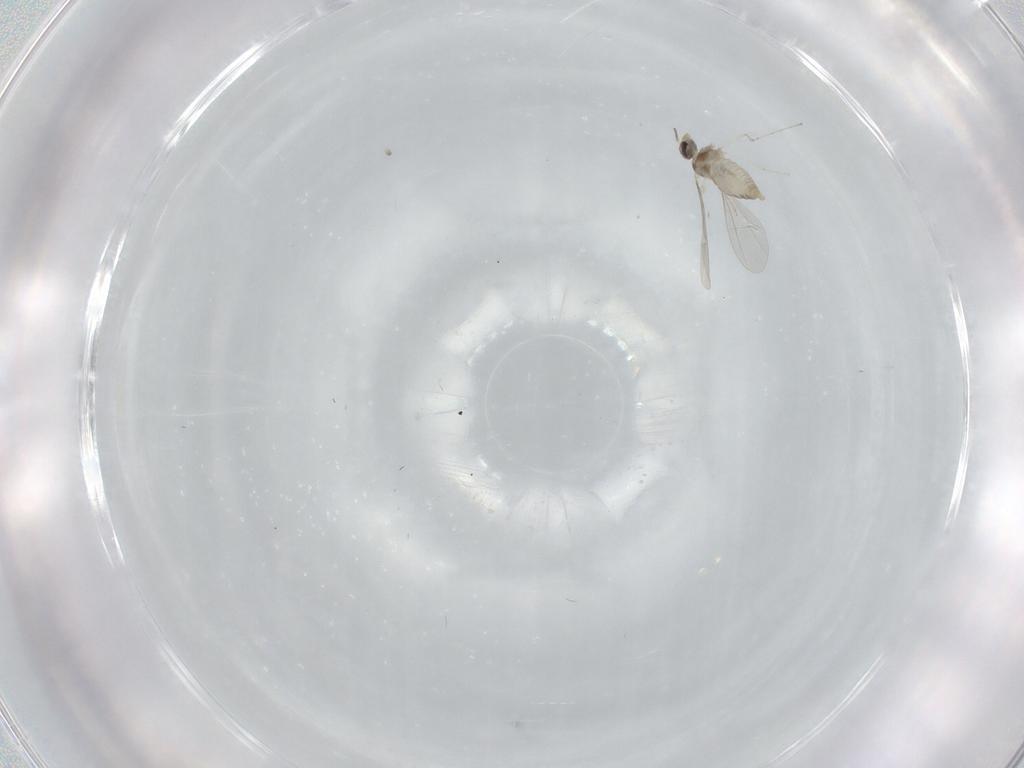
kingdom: Animalia
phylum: Arthropoda
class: Insecta
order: Diptera
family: Cecidomyiidae
